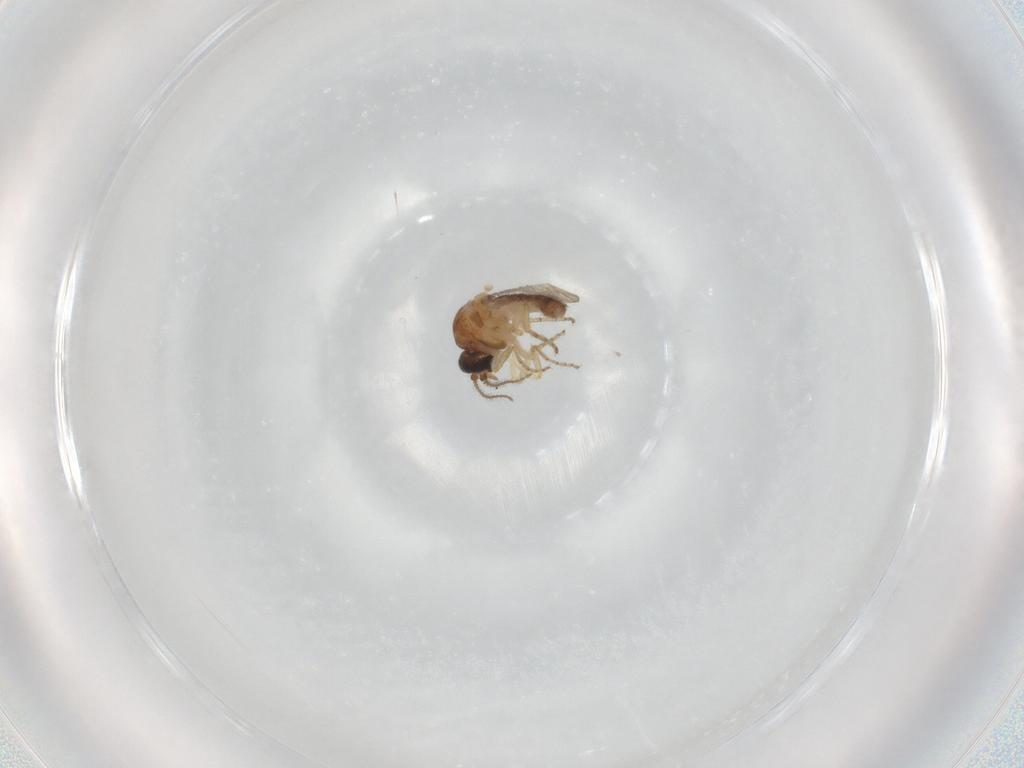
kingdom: Animalia
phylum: Arthropoda
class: Insecta
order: Diptera
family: Ceratopogonidae
